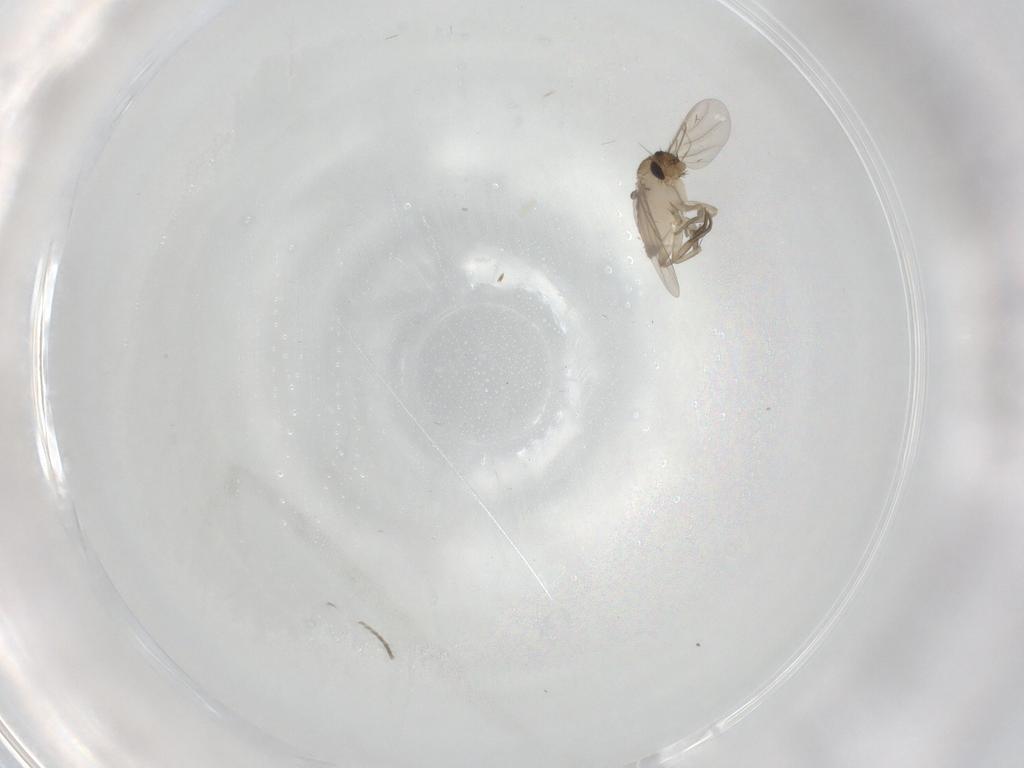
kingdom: Animalia
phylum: Arthropoda
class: Insecta
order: Diptera
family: Phoridae
